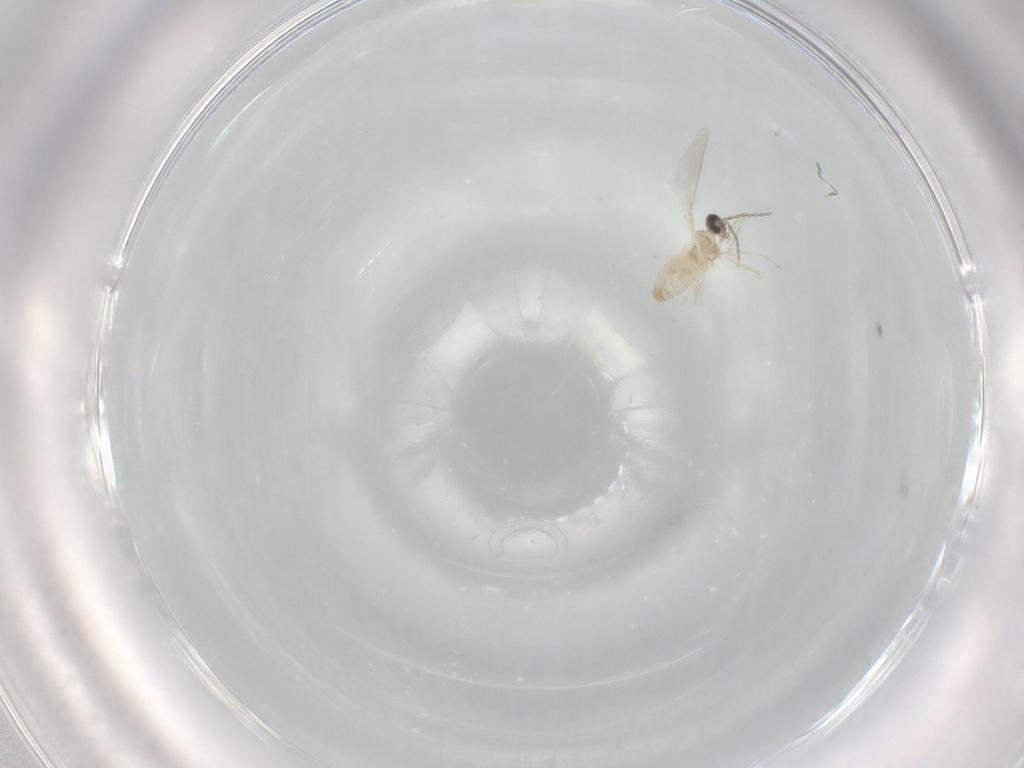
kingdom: Animalia
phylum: Arthropoda
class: Insecta
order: Diptera
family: Cecidomyiidae
